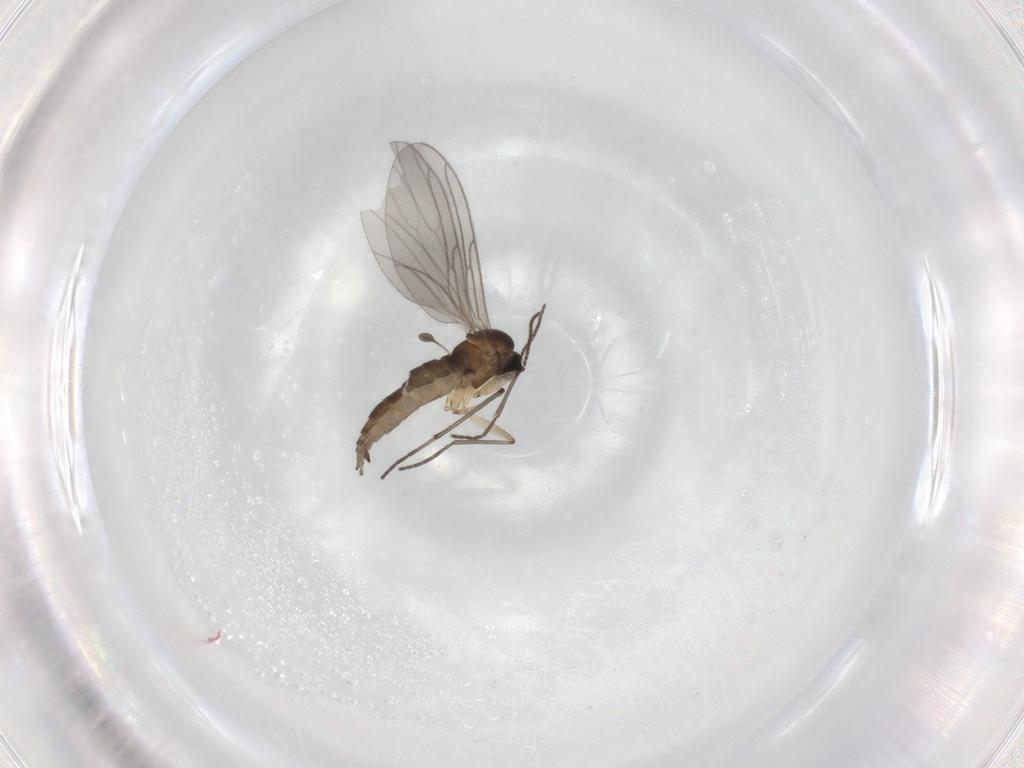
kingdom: Animalia
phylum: Arthropoda
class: Insecta
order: Diptera
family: Sciaridae
